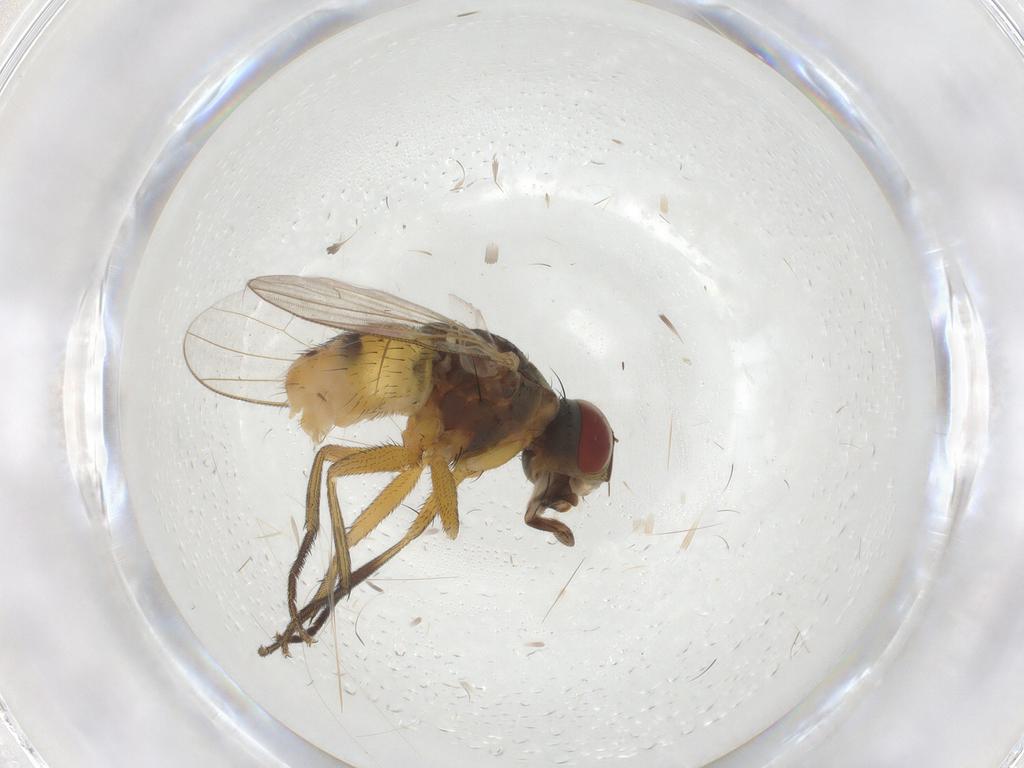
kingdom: Animalia
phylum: Arthropoda
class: Insecta
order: Diptera
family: Muscidae
